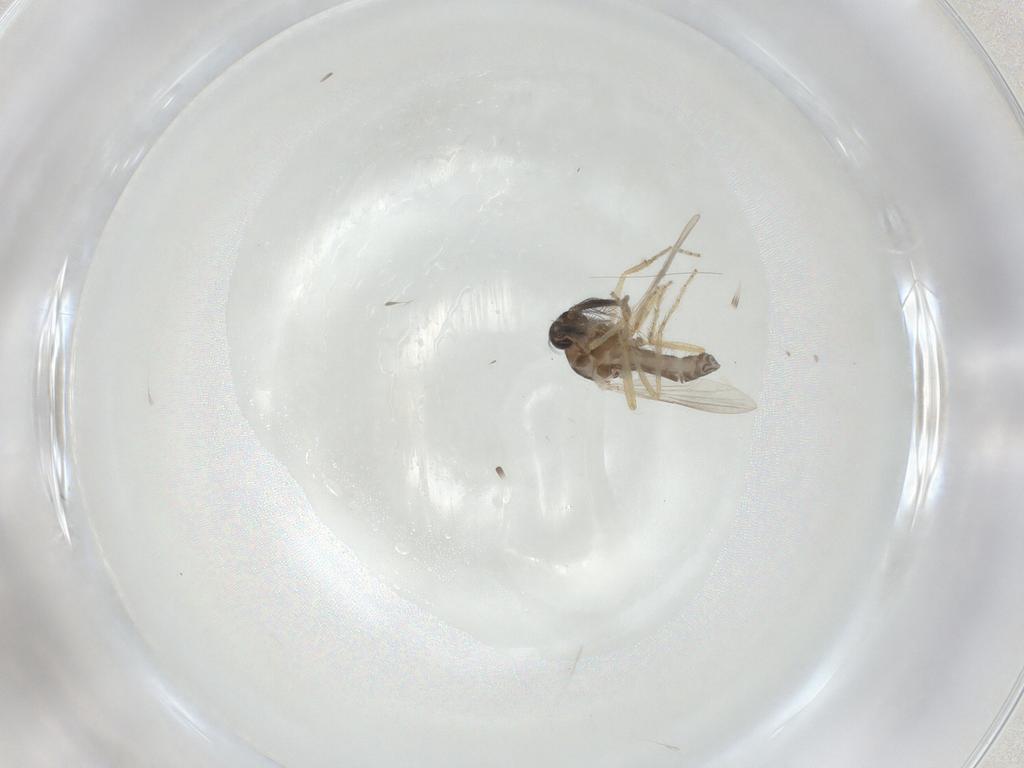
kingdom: Animalia
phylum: Arthropoda
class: Insecta
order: Diptera
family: Ceratopogonidae
